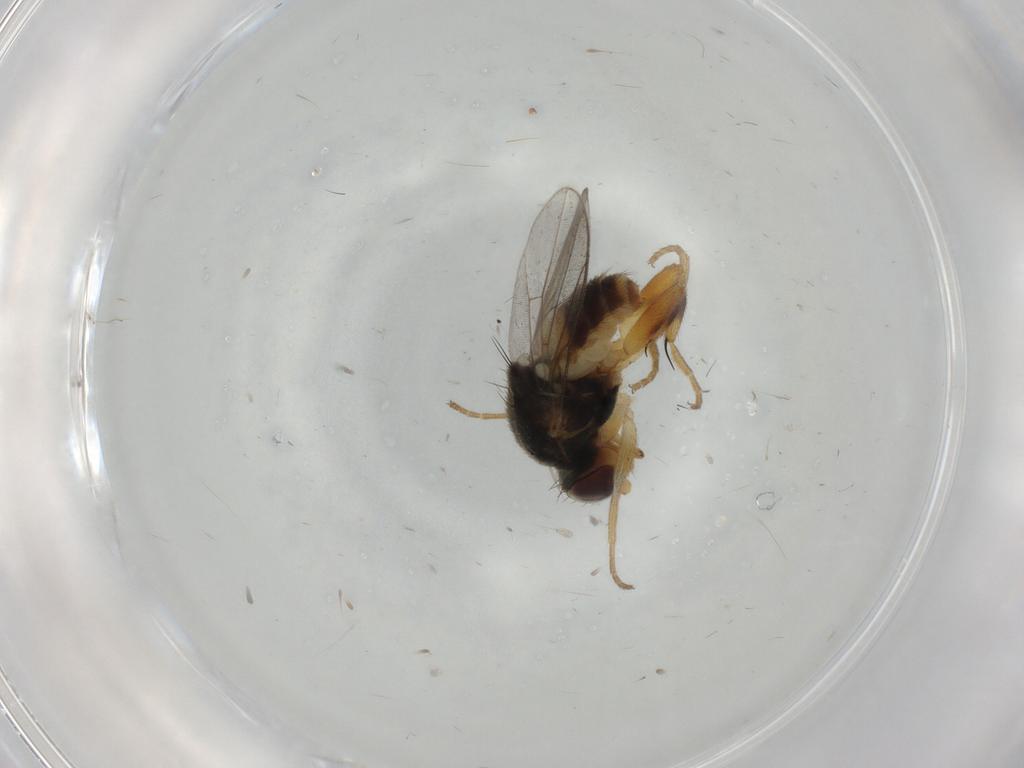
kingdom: Animalia
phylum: Arthropoda
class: Insecta
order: Diptera
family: Chloropidae
